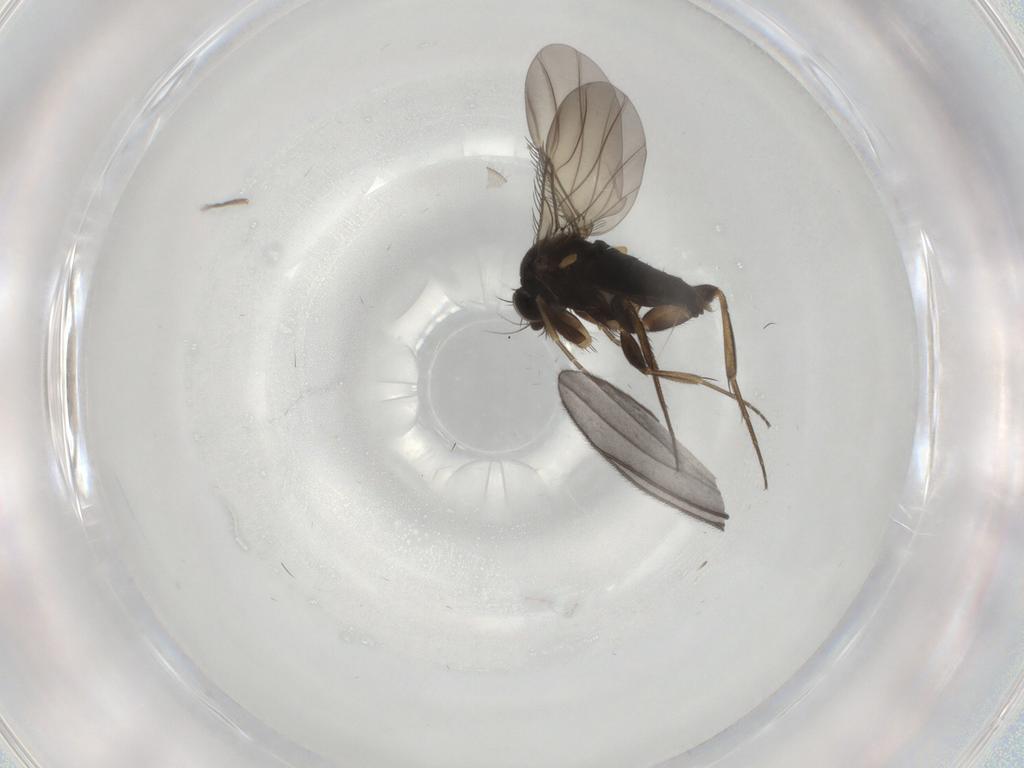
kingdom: Animalia
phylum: Arthropoda
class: Insecta
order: Diptera
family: Phoridae
